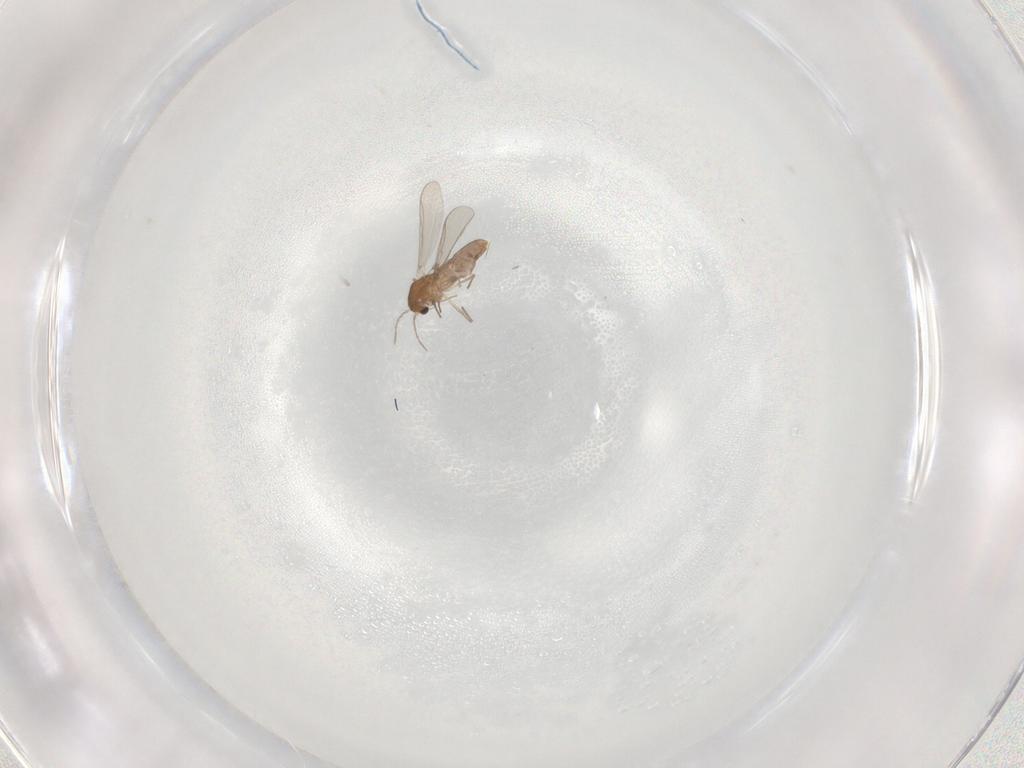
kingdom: Animalia
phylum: Arthropoda
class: Insecta
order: Diptera
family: Chironomidae
